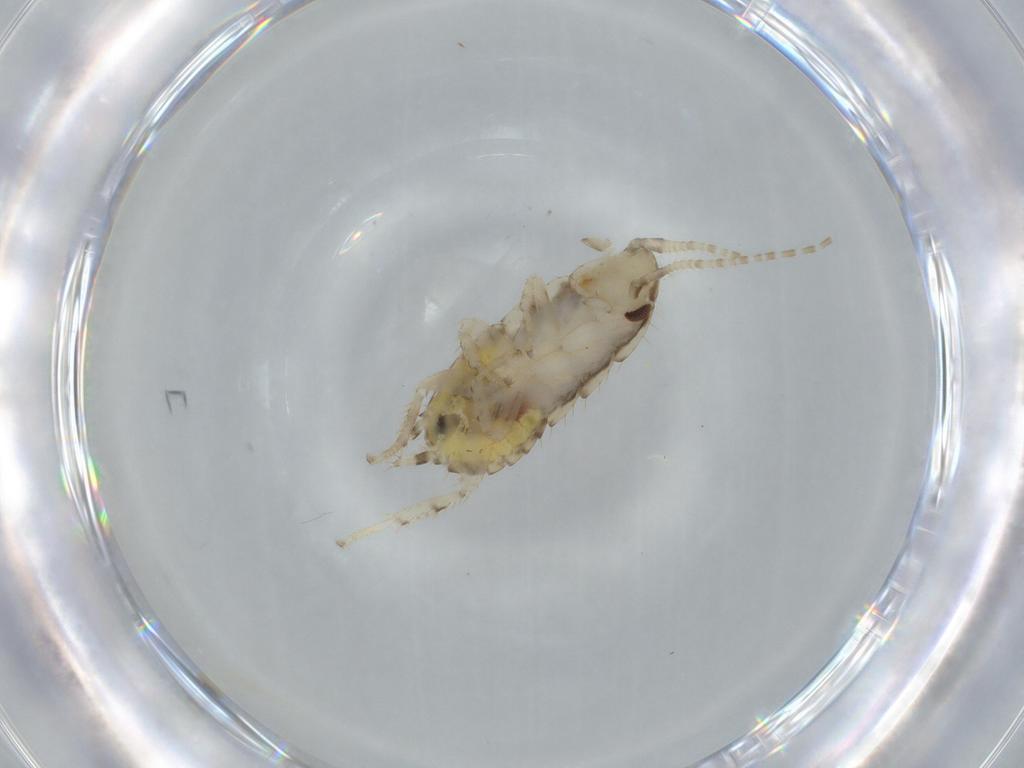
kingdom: Animalia
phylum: Arthropoda
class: Insecta
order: Blattodea
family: Ectobiidae
